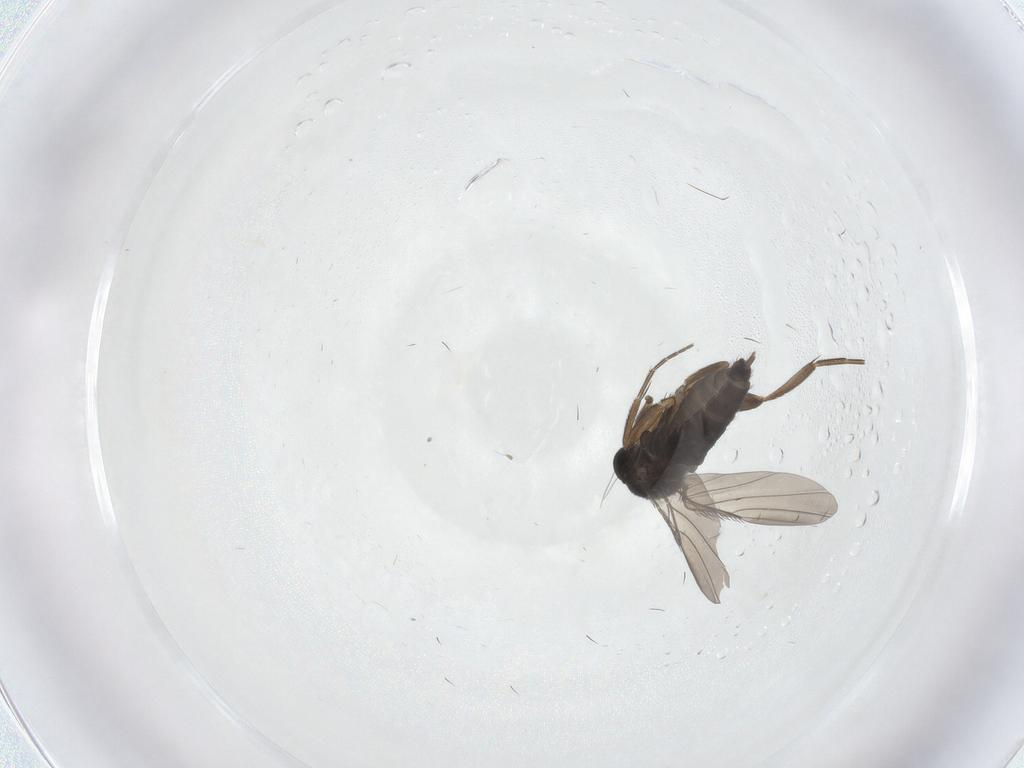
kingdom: Animalia
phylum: Arthropoda
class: Insecta
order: Diptera
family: Phoridae
